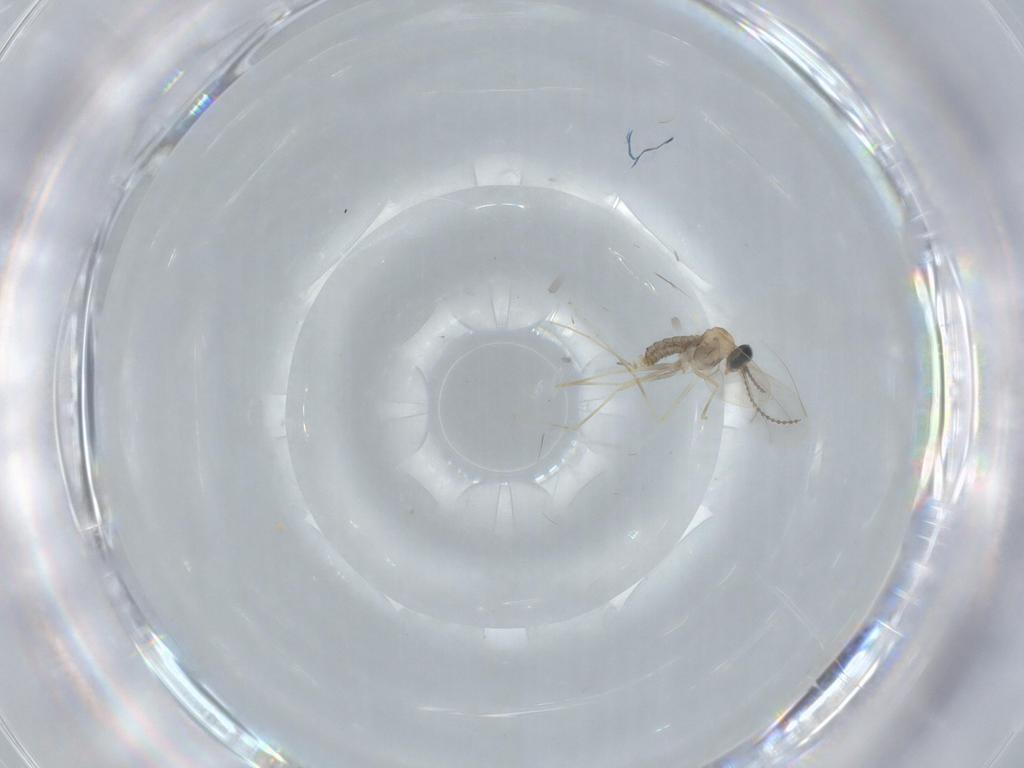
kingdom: Animalia
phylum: Arthropoda
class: Insecta
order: Diptera
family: Cecidomyiidae
